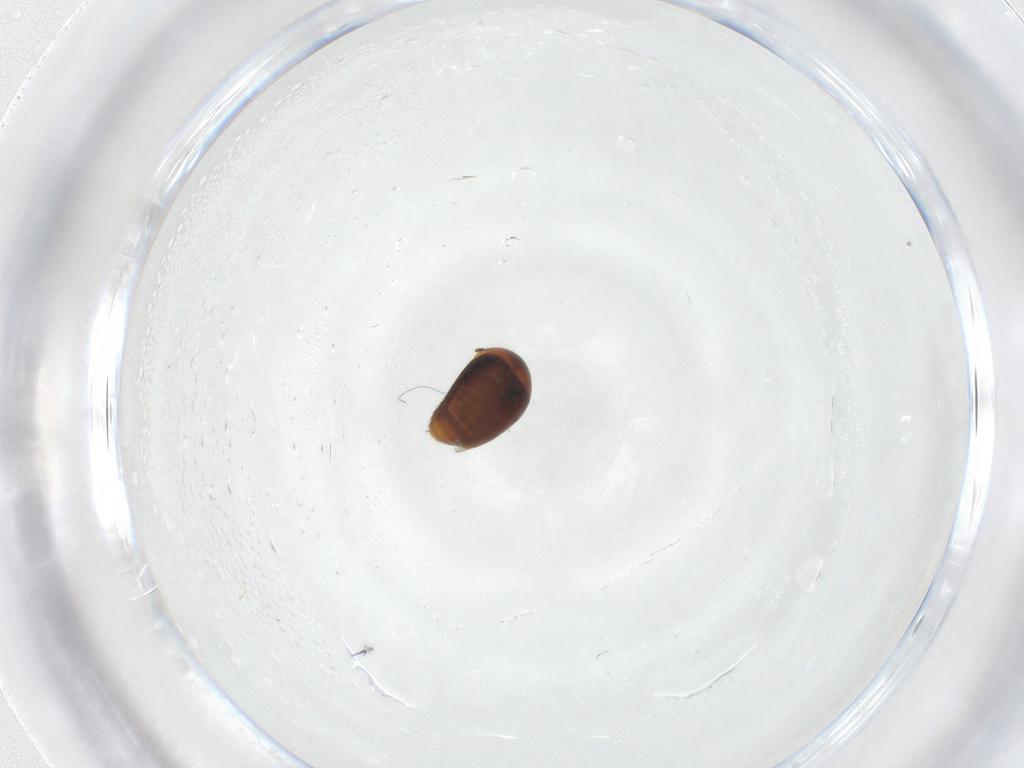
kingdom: Animalia
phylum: Arthropoda
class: Insecta
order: Coleoptera
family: Corylophidae
